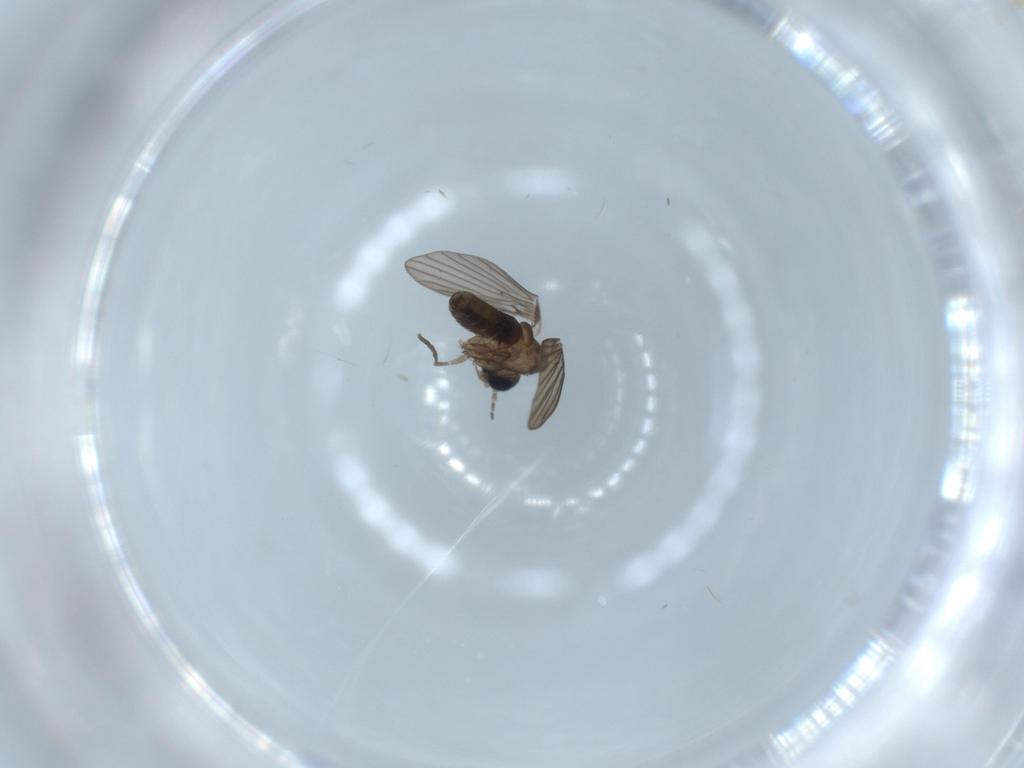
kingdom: Animalia
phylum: Arthropoda
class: Insecta
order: Diptera
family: Psychodidae
